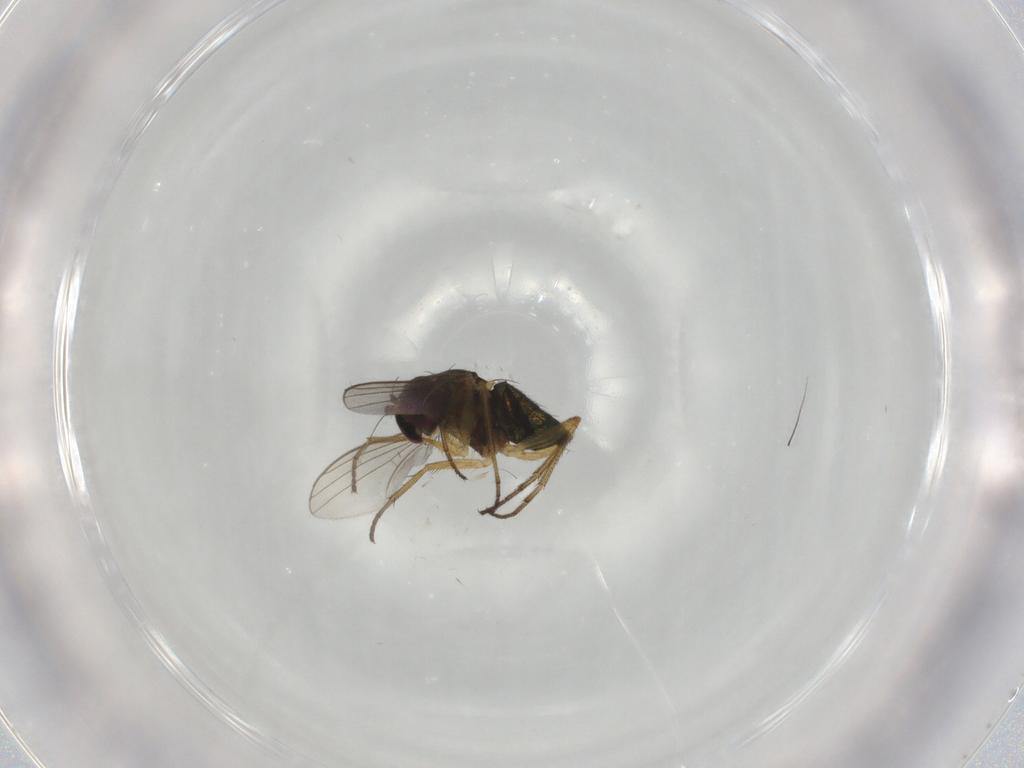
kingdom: Animalia
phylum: Arthropoda
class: Insecta
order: Diptera
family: Dolichopodidae
